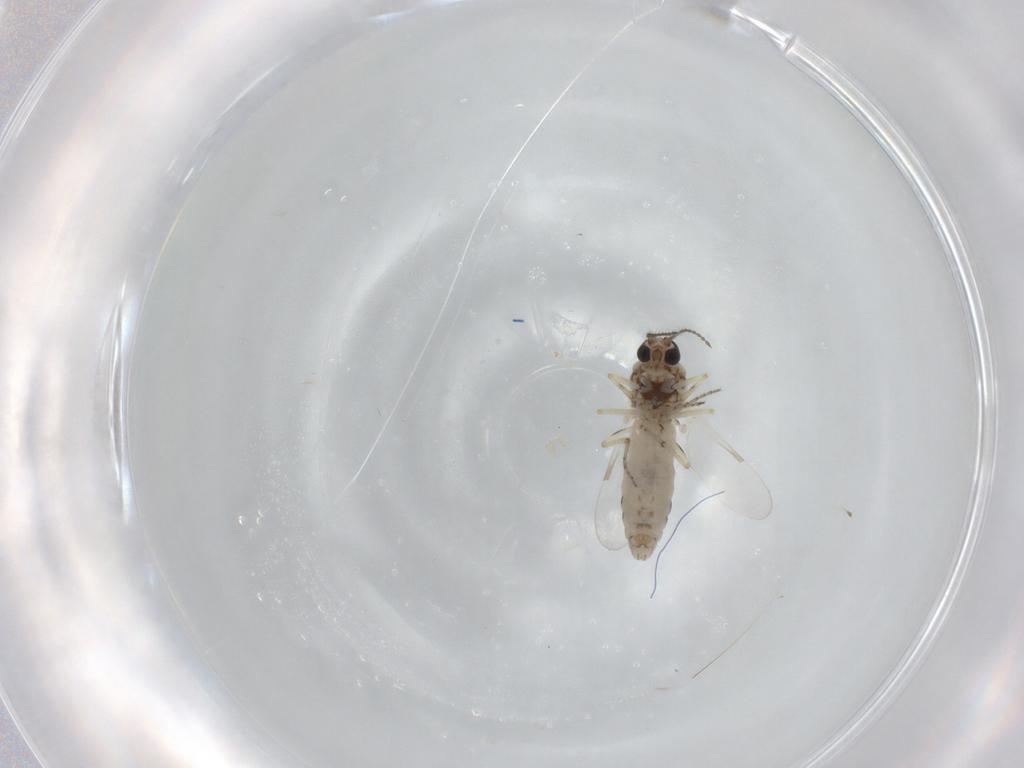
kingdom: Animalia
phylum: Arthropoda
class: Insecta
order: Diptera
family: Ceratopogonidae
